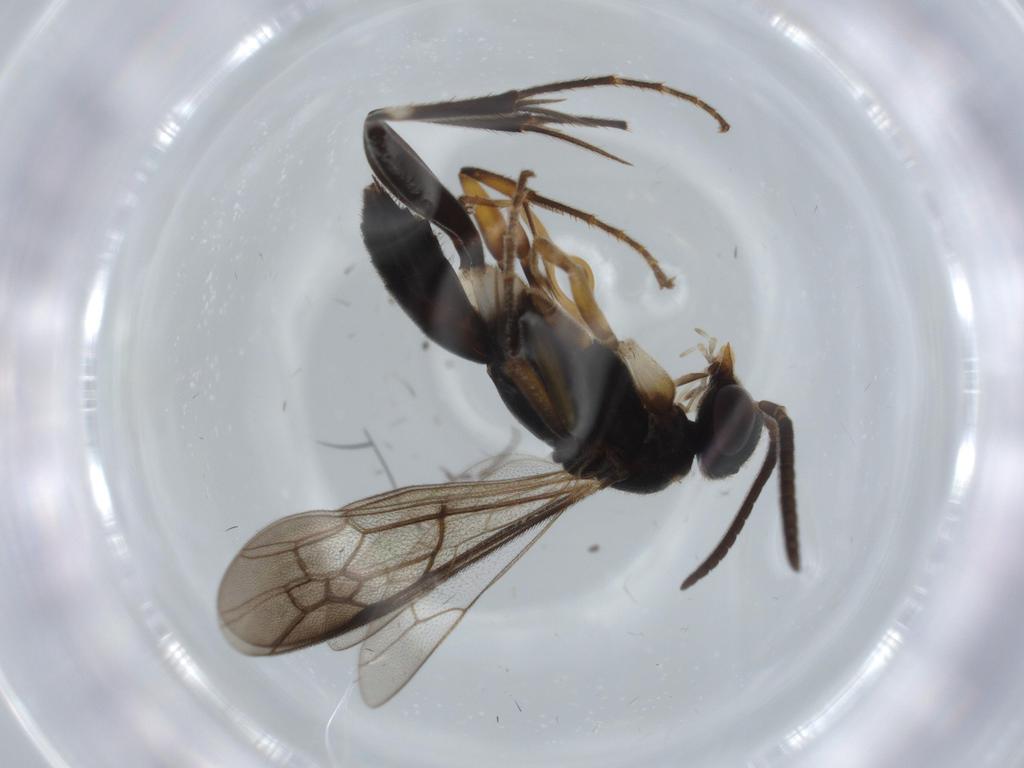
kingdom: Animalia
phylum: Arthropoda
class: Insecta
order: Hymenoptera
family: Pompilidae
